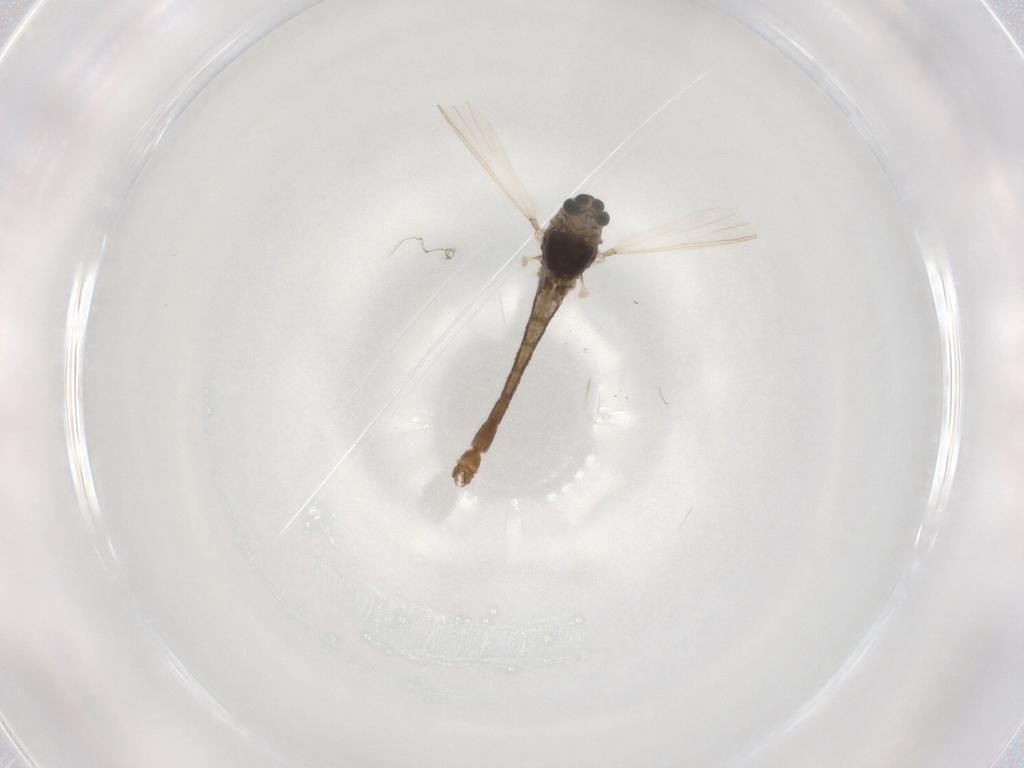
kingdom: Animalia
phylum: Arthropoda
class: Insecta
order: Diptera
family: Chironomidae
